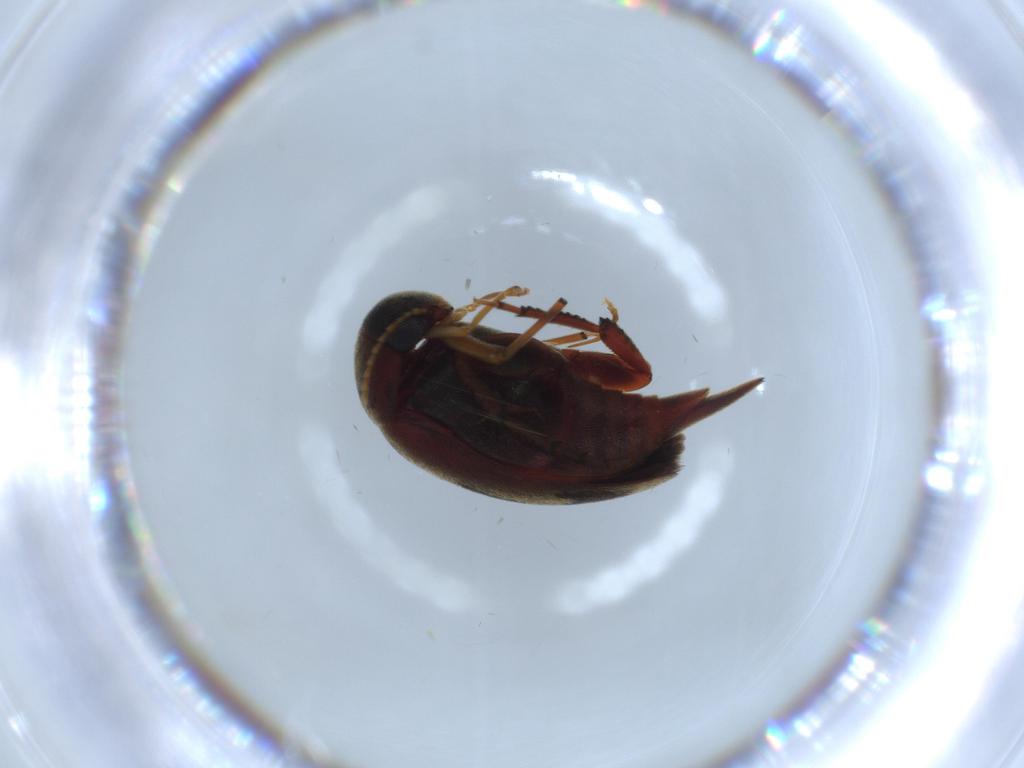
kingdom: Animalia
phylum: Arthropoda
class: Insecta
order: Coleoptera
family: Mordellidae
